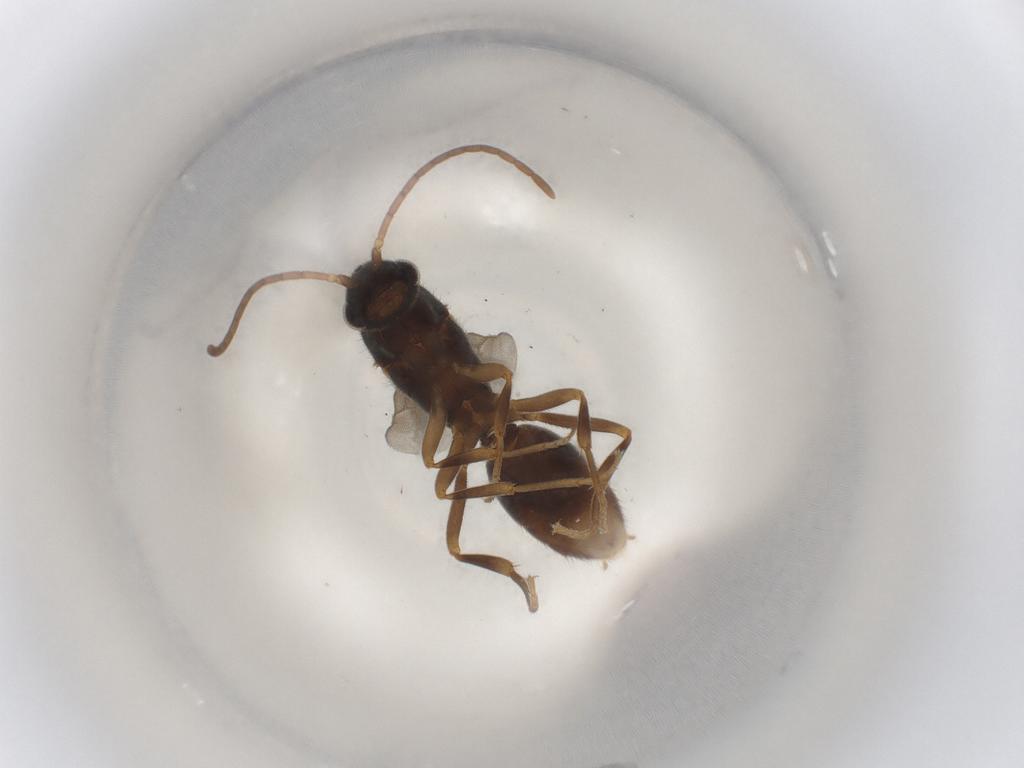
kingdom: Animalia
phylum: Arthropoda
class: Insecta
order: Hymenoptera
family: Formicidae
